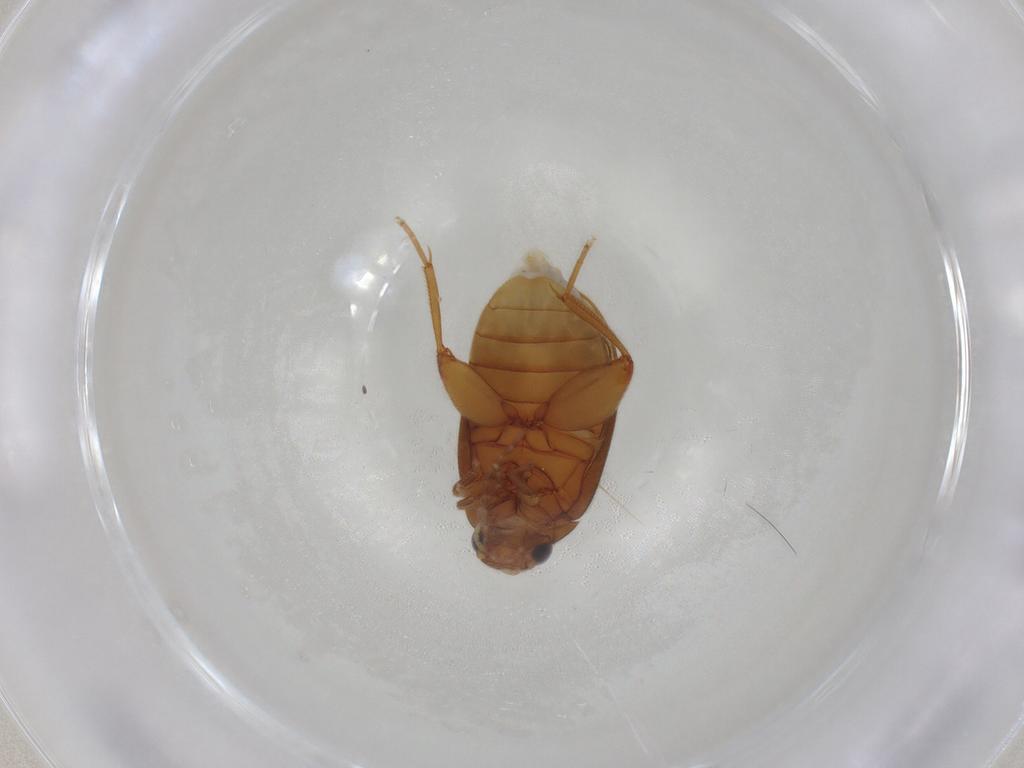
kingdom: Animalia
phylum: Arthropoda
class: Insecta
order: Coleoptera
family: Scirtidae
